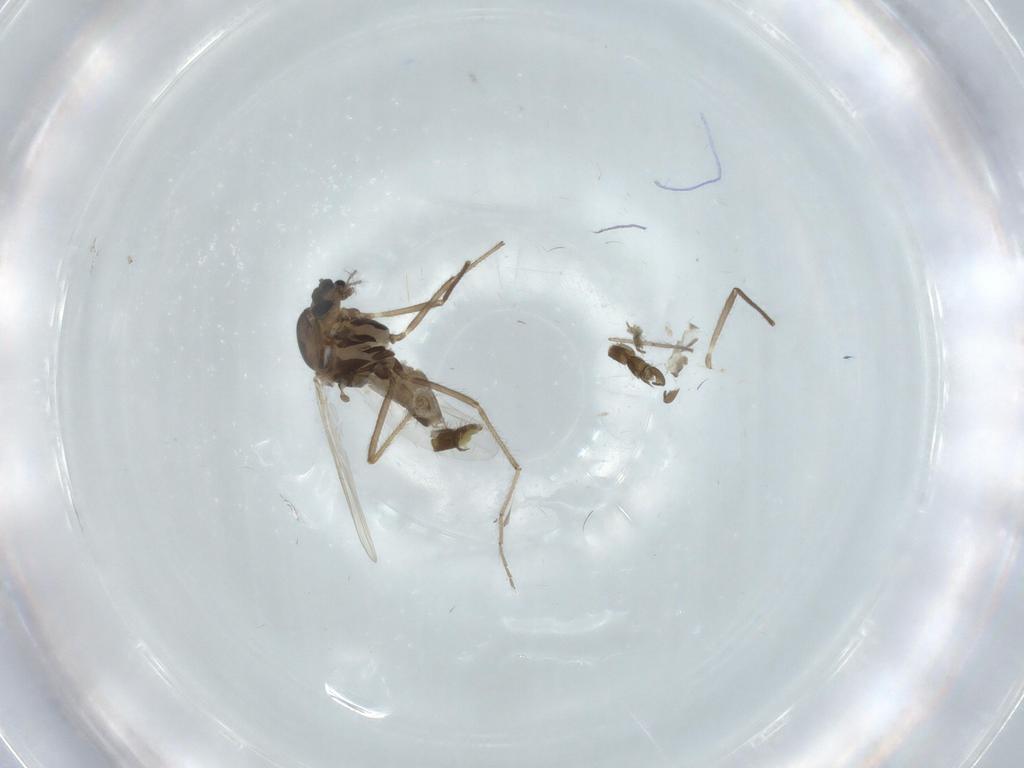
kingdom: Animalia
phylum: Arthropoda
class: Insecta
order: Diptera
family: Chironomidae
